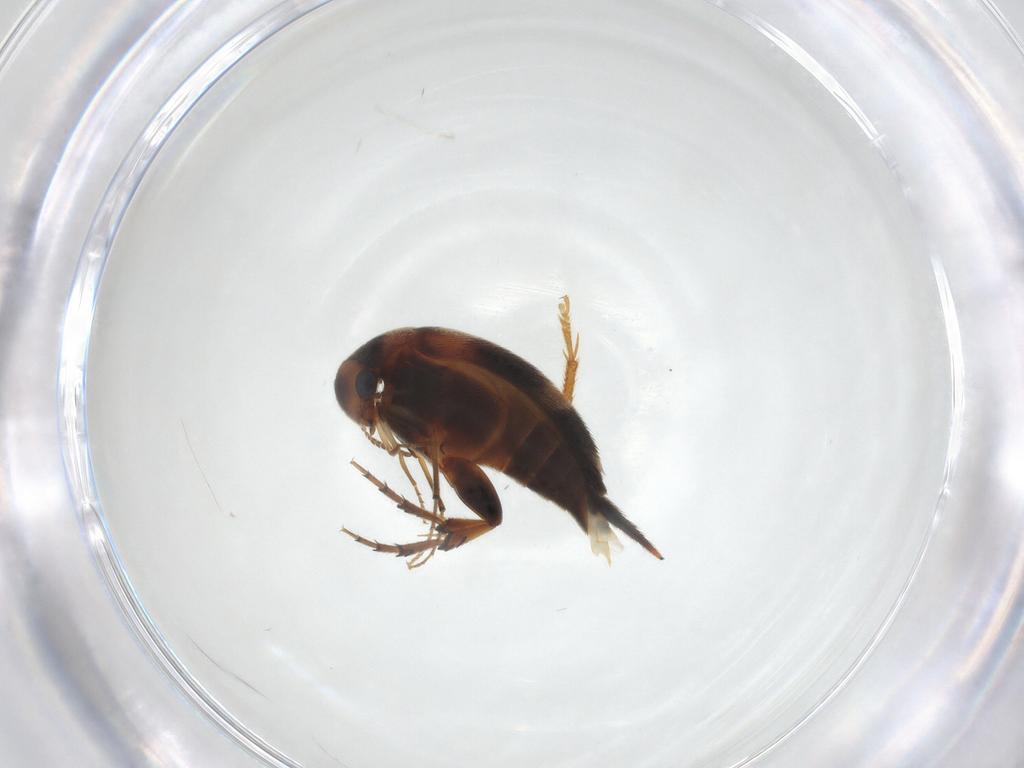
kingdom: Animalia
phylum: Arthropoda
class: Insecta
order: Coleoptera
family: Mordellidae
